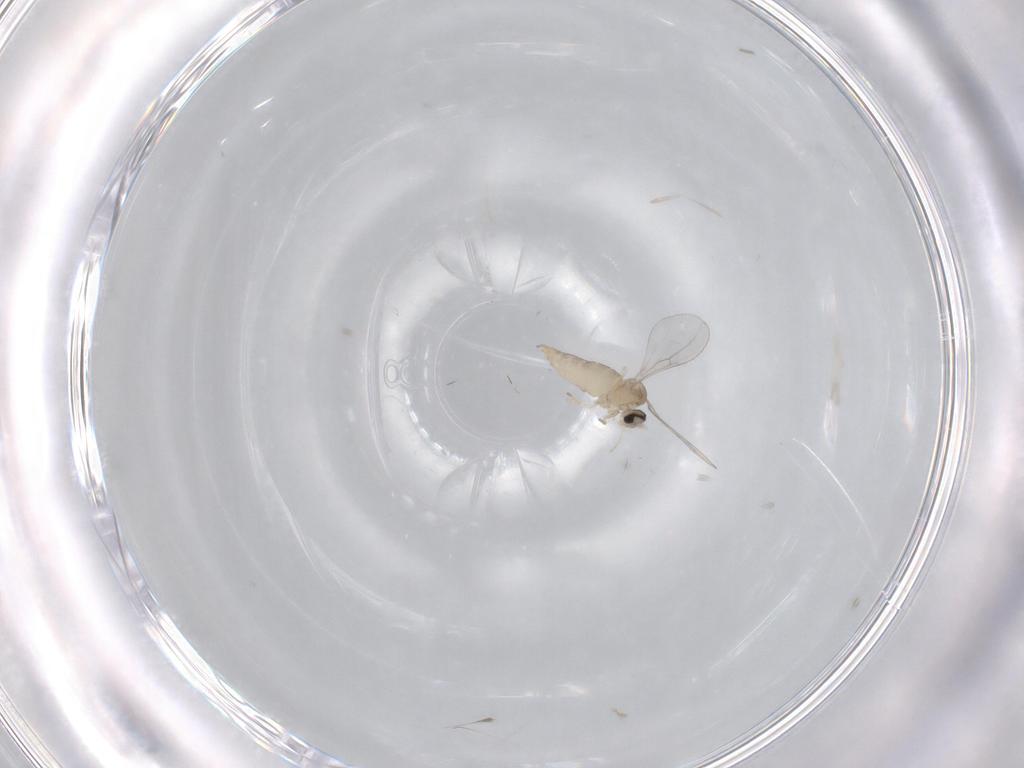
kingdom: Animalia
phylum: Arthropoda
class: Insecta
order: Diptera
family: Cecidomyiidae
